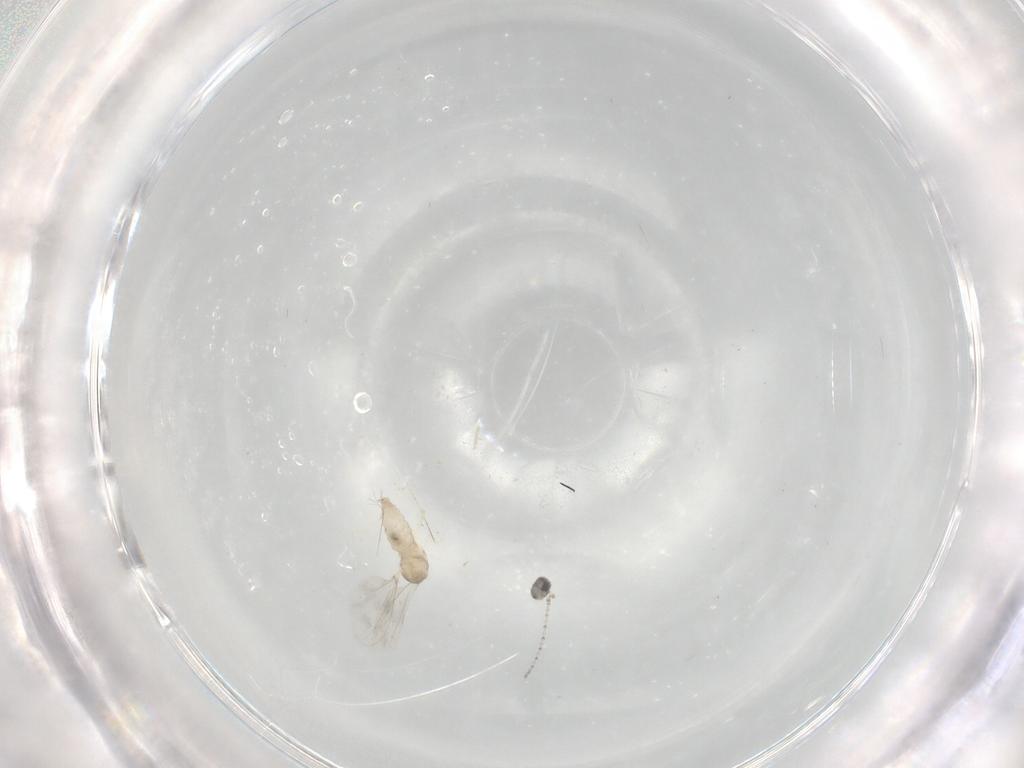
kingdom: Animalia
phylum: Arthropoda
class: Insecta
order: Diptera
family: Cecidomyiidae
